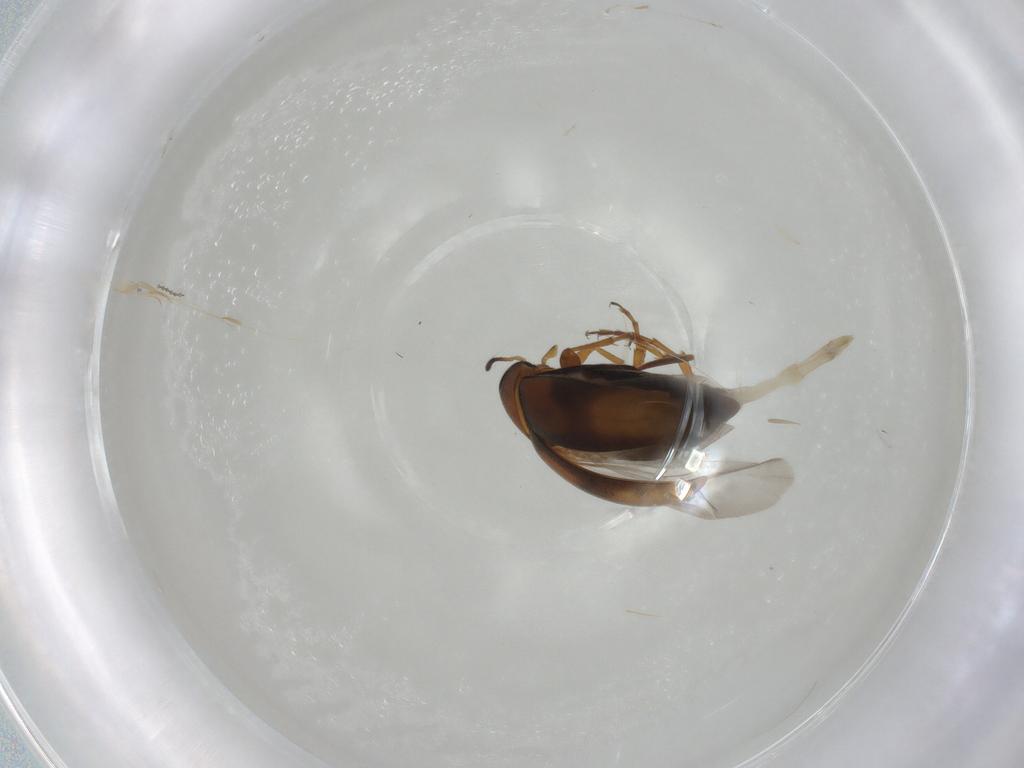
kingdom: Animalia
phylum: Arthropoda
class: Insecta
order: Coleoptera
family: Scraptiidae
